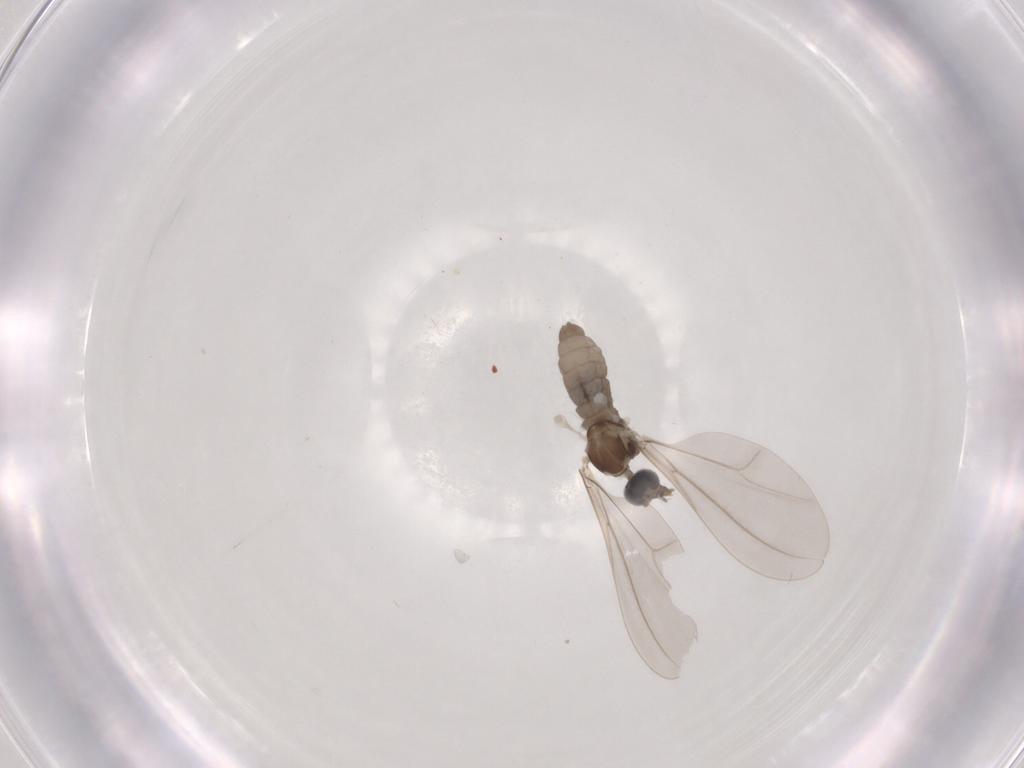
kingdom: Animalia
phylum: Arthropoda
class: Insecta
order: Diptera
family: Cecidomyiidae
